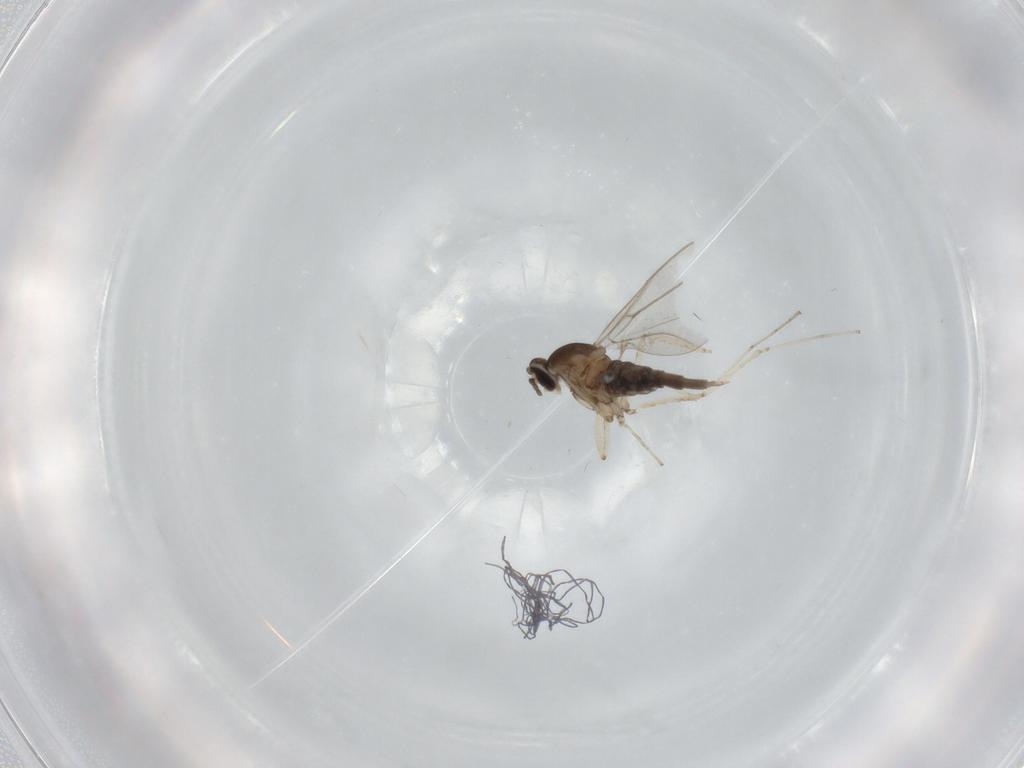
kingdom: Animalia
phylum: Arthropoda
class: Insecta
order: Diptera
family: Cecidomyiidae
